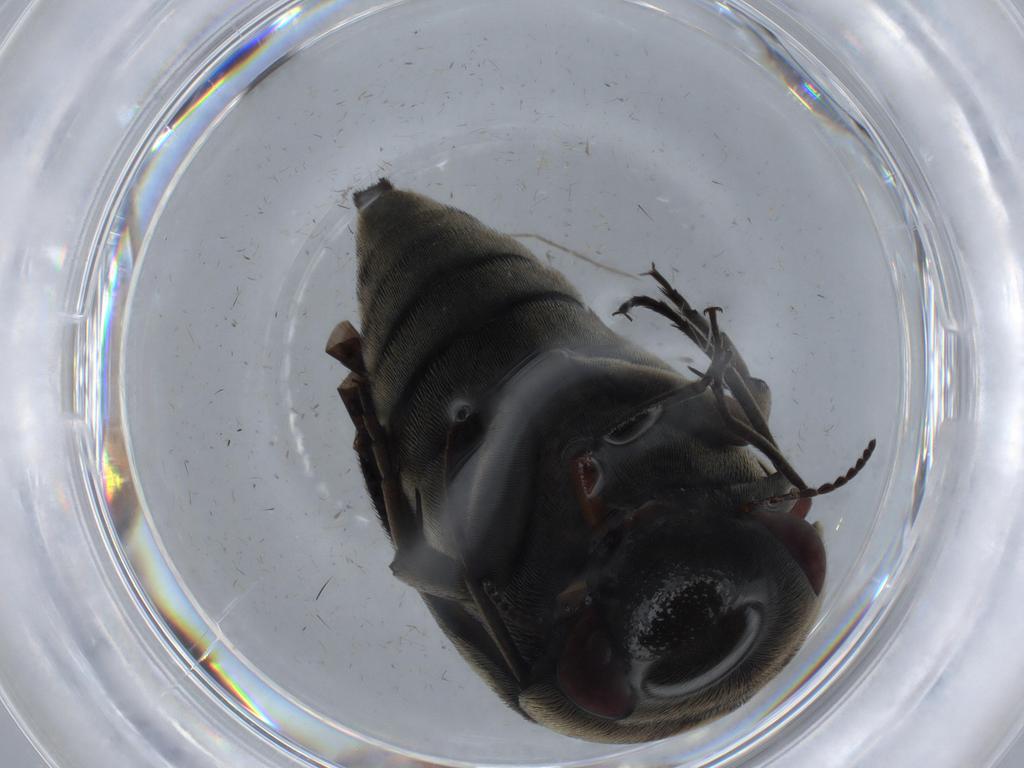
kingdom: Animalia
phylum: Arthropoda
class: Insecta
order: Coleoptera
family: Mordellidae
